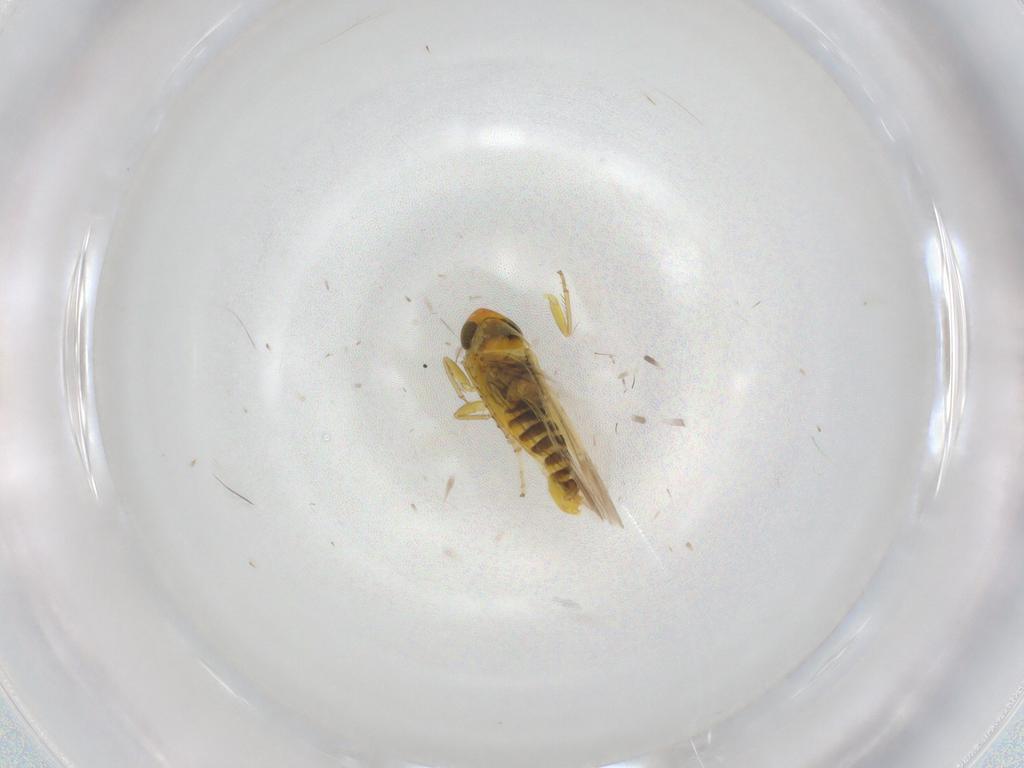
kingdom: Animalia
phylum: Arthropoda
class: Insecta
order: Hemiptera
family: Cicadellidae
